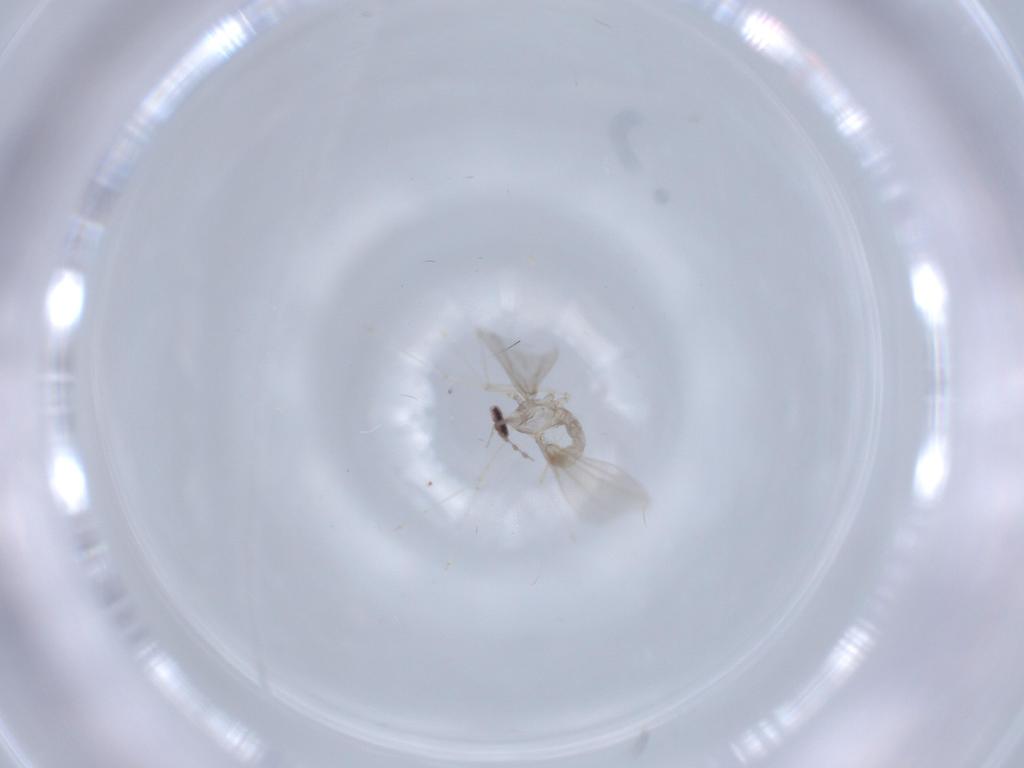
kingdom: Animalia
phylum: Arthropoda
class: Insecta
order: Diptera
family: Cecidomyiidae
